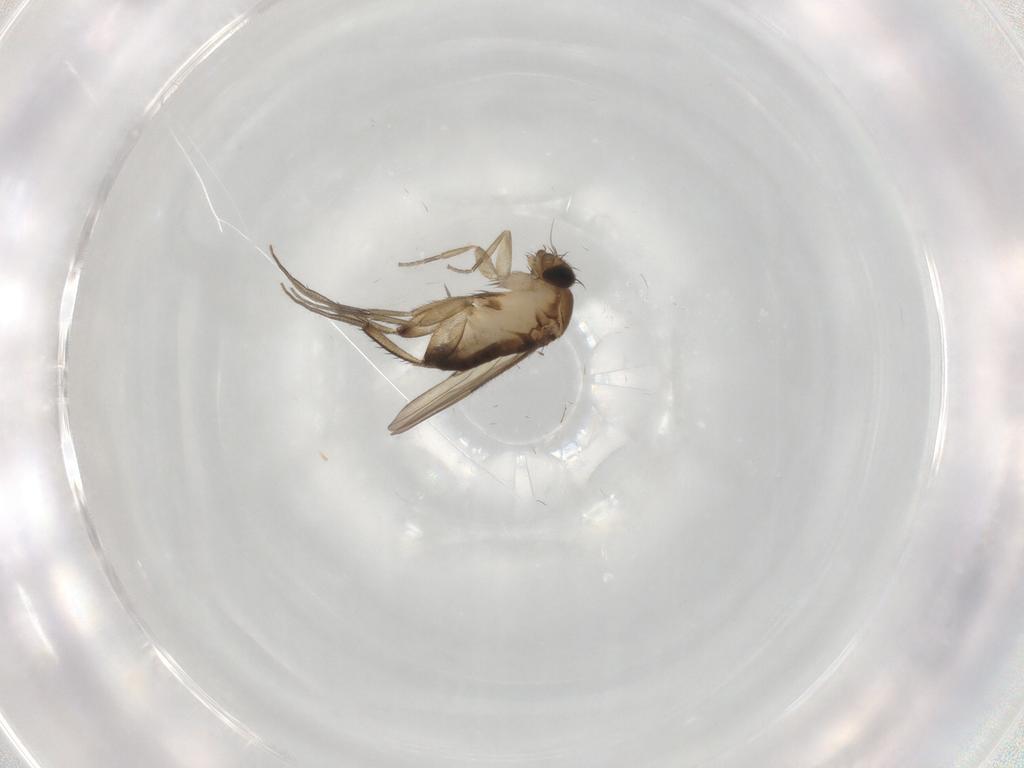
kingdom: Animalia
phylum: Arthropoda
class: Insecta
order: Diptera
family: Phoridae
